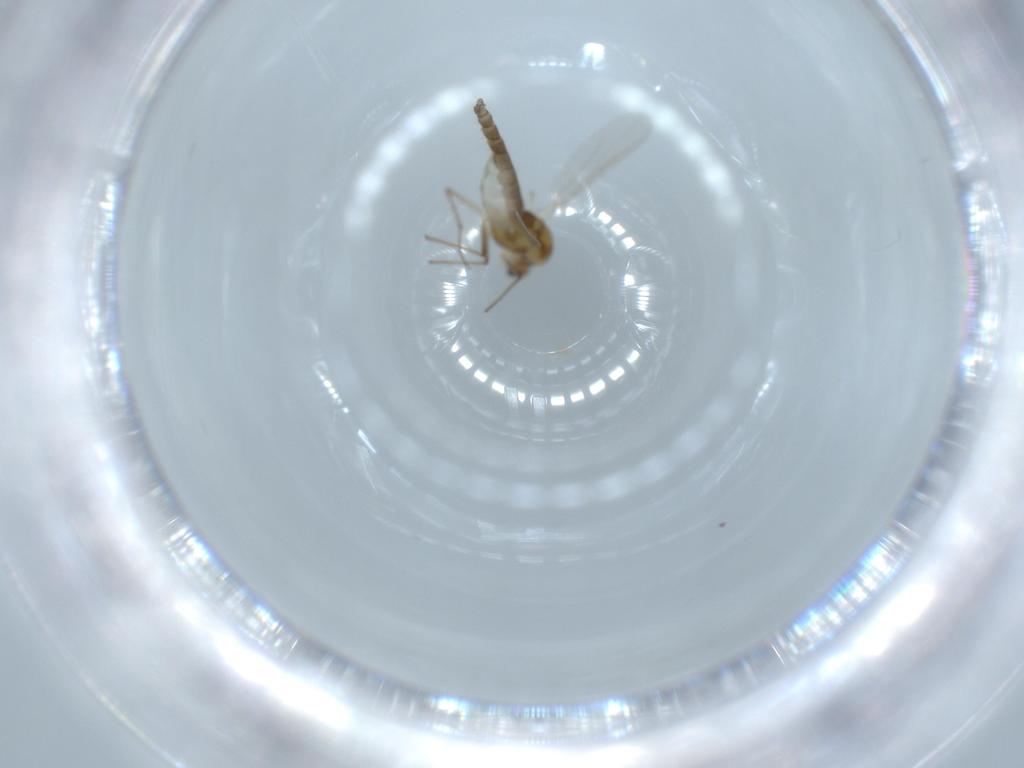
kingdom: Animalia
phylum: Arthropoda
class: Insecta
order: Diptera
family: Chironomidae
